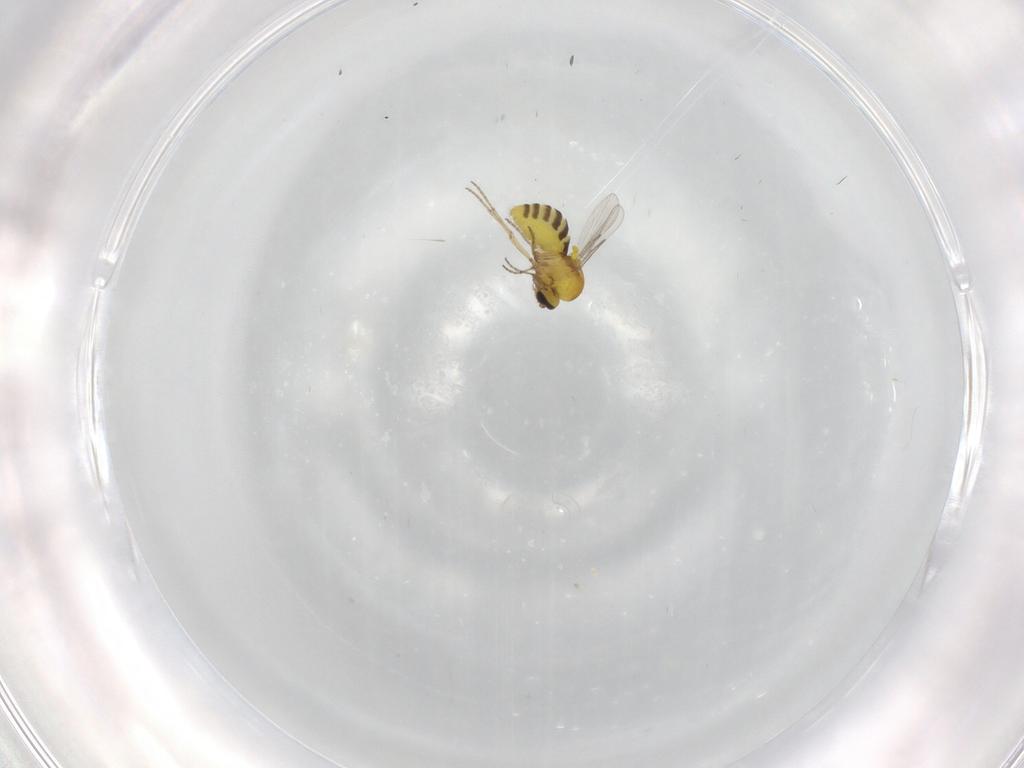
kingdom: Animalia
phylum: Arthropoda
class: Insecta
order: Diptera
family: Ceratopogonidae
